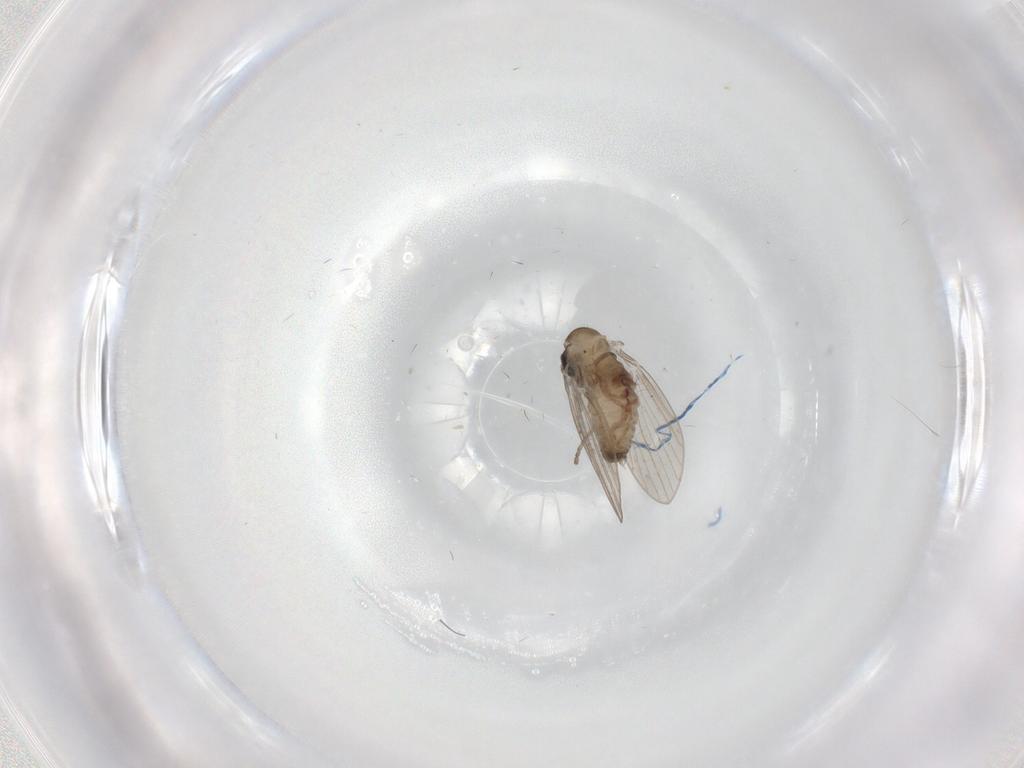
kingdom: Animalia
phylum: Arthropoda
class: Insecta
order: Diptera
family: Psychodidae
